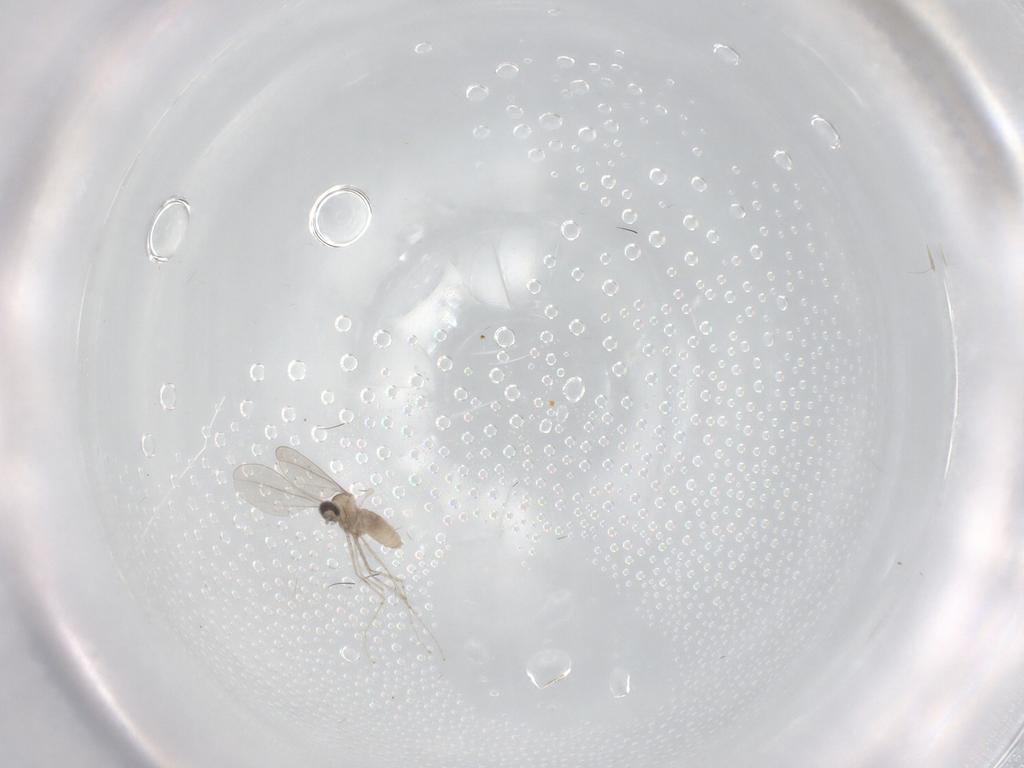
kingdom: Animalia
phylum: Arthropoda
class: Insecta
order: Diptera
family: Cecidomyiidae
